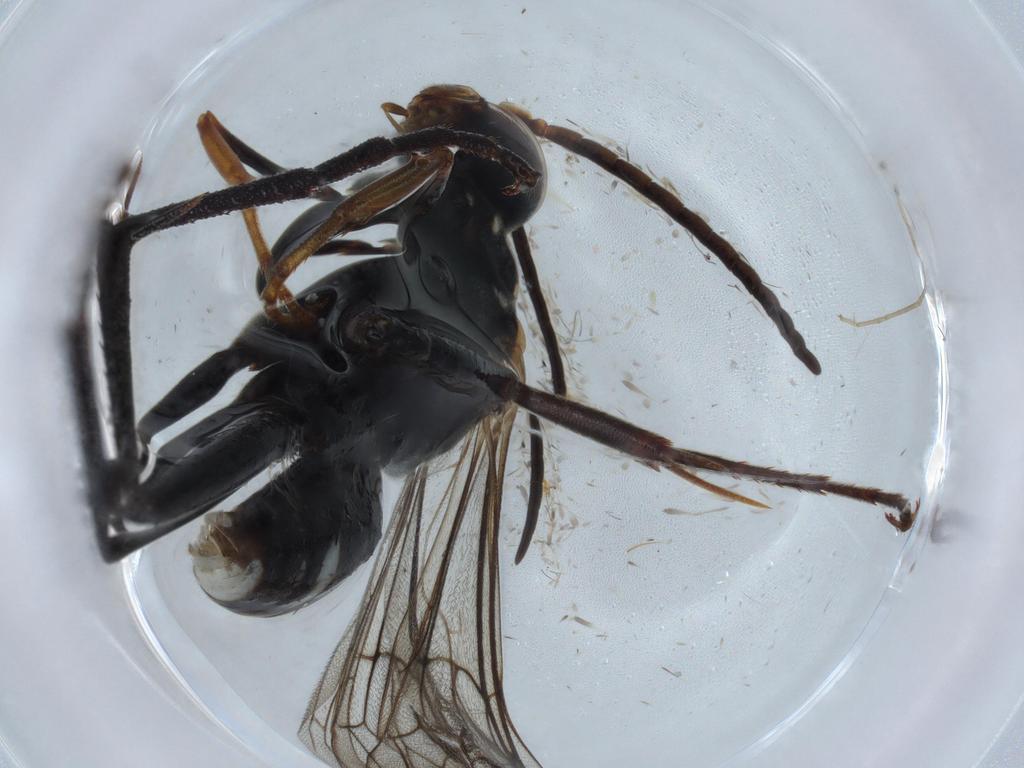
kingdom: Animalia
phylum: Arthropoda
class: Insecta
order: Hymenoptera
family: Pompilidae
